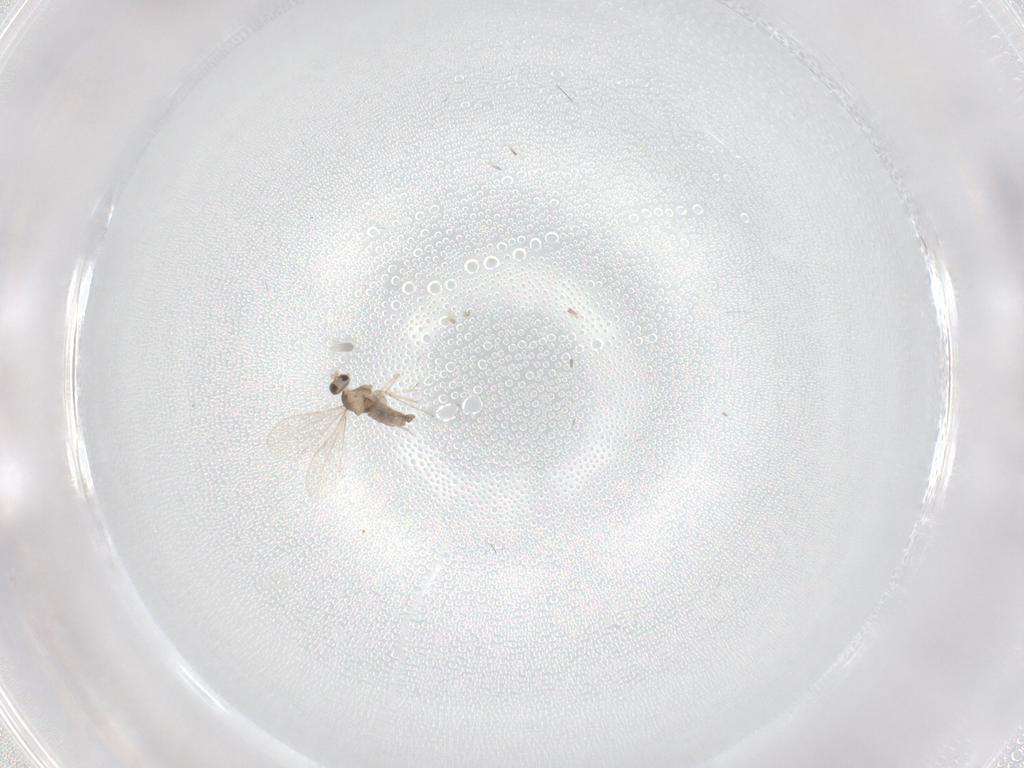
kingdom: Animalia
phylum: Arthropoda
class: Insecta
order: Diptera
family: Cecidomyiidae
